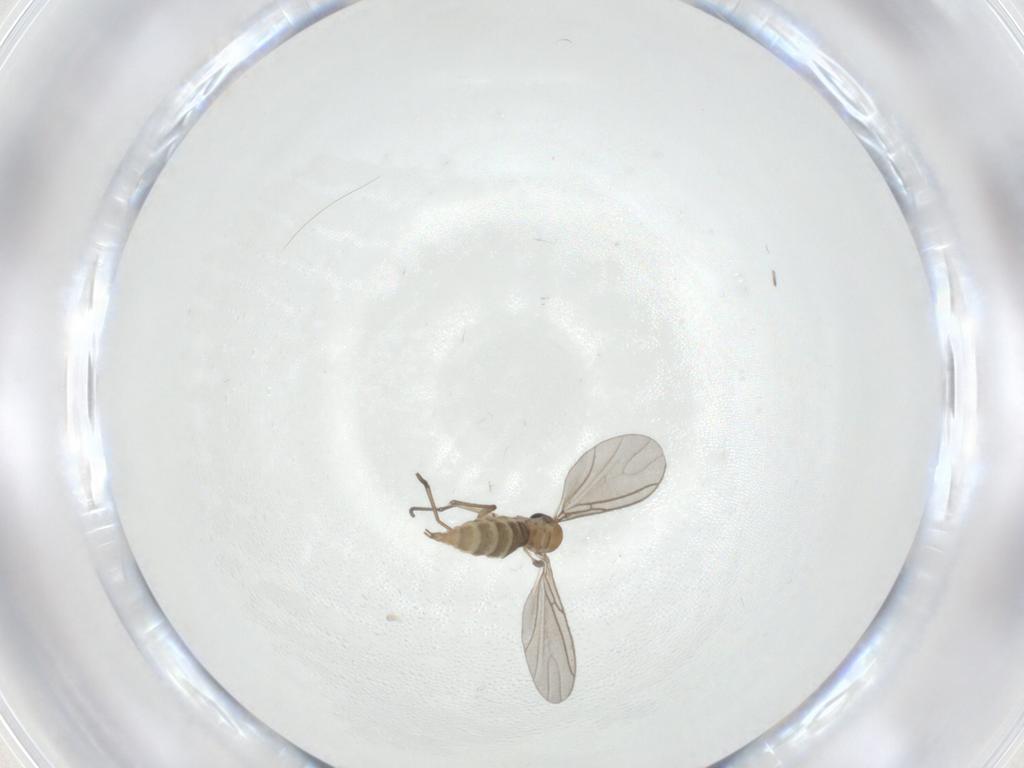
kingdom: Animalia
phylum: Arthropoda
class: Insecta
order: Diptera
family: Sciaridae
